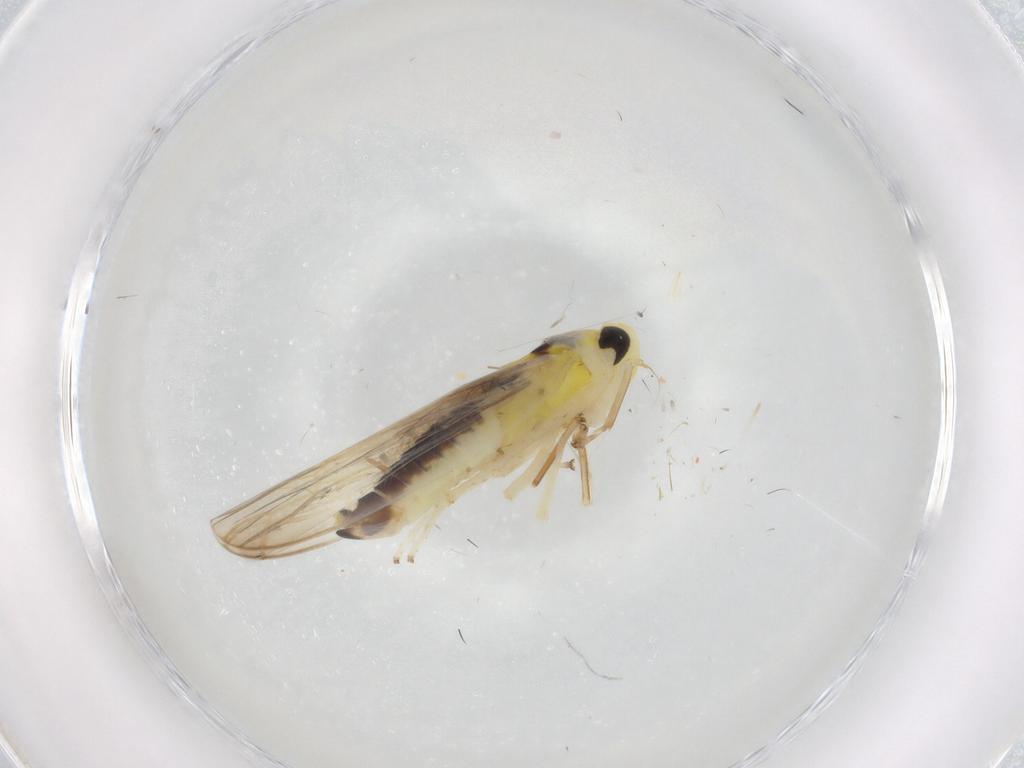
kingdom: Animalia
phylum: Arthropoda
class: Insecta
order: Hemiptera
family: Cicadellidae
